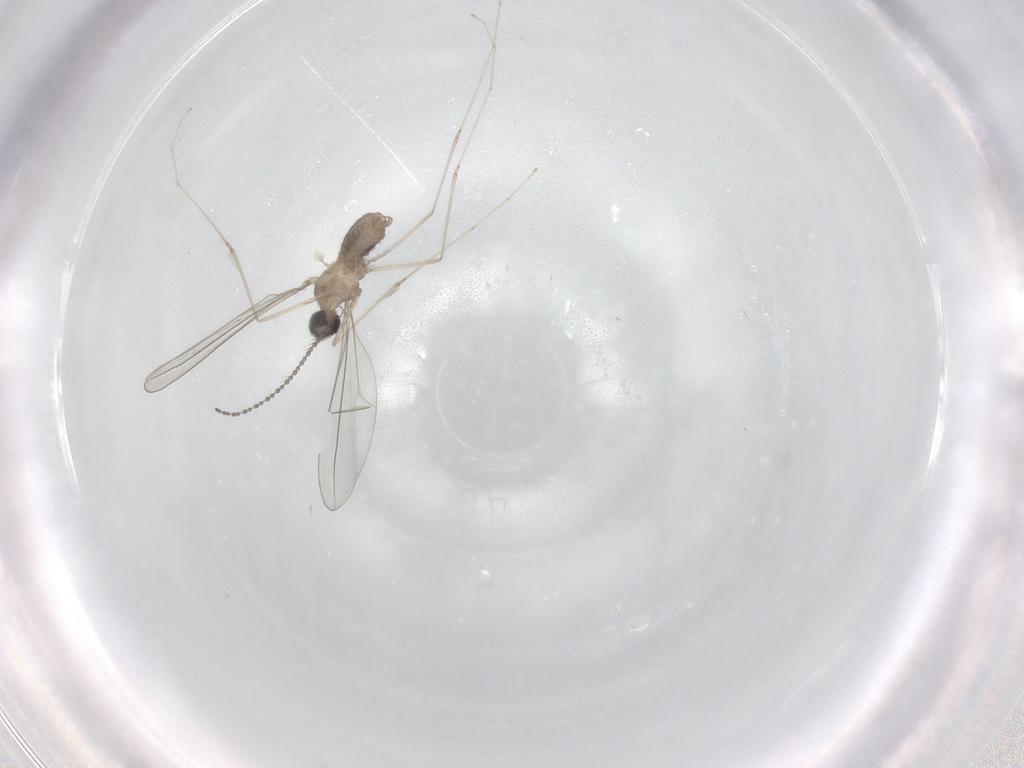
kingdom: Animalia
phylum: Arthropoda
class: Insecta
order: Diptera
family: Cecidomyiidae
